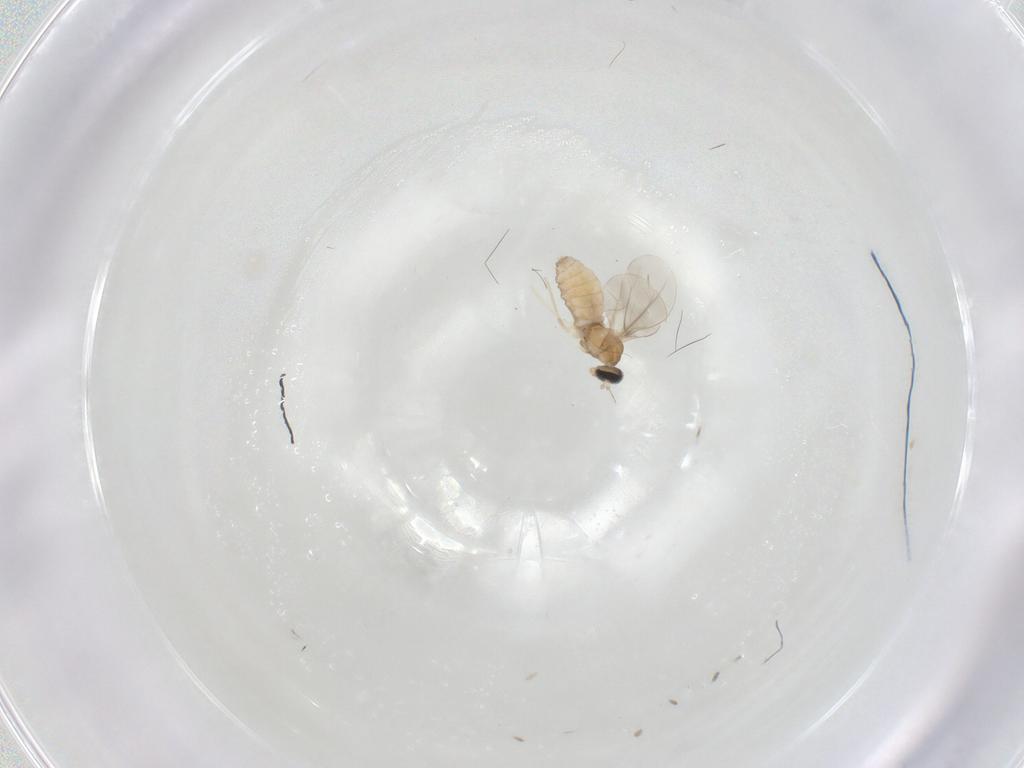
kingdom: Animalia
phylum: Arthropoda
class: Insecta
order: Diptera
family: Cecidomyiidae
